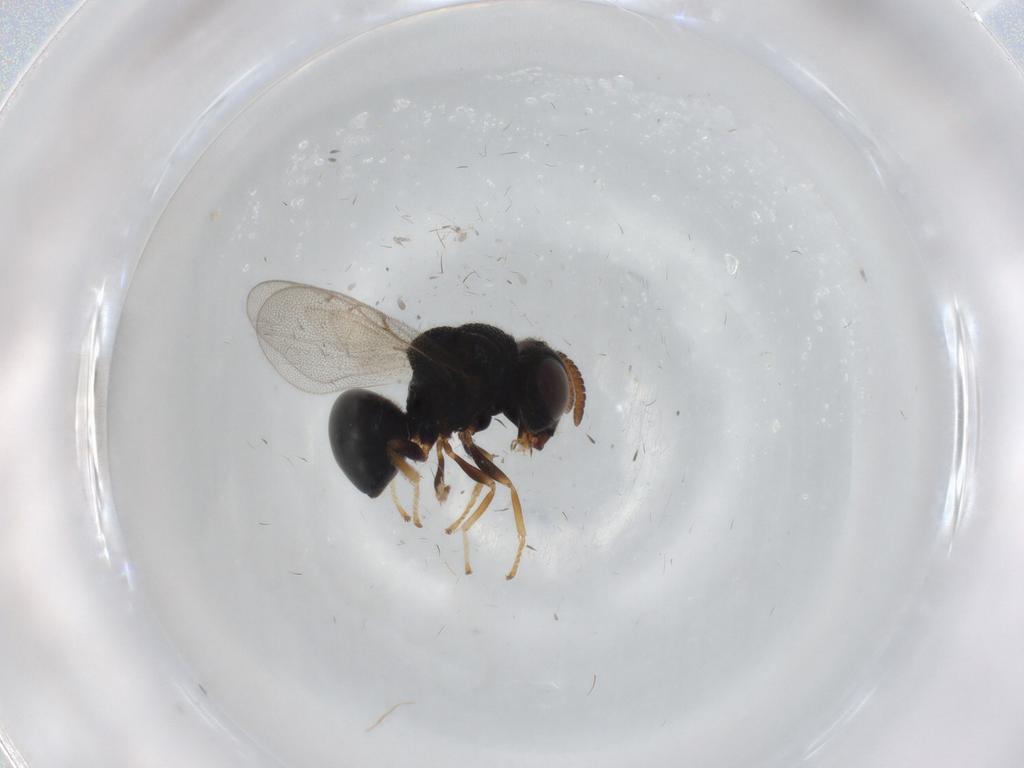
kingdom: Animalia
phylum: Arthropoda
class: Insecta
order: Hymenoptera
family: Perilampidae
